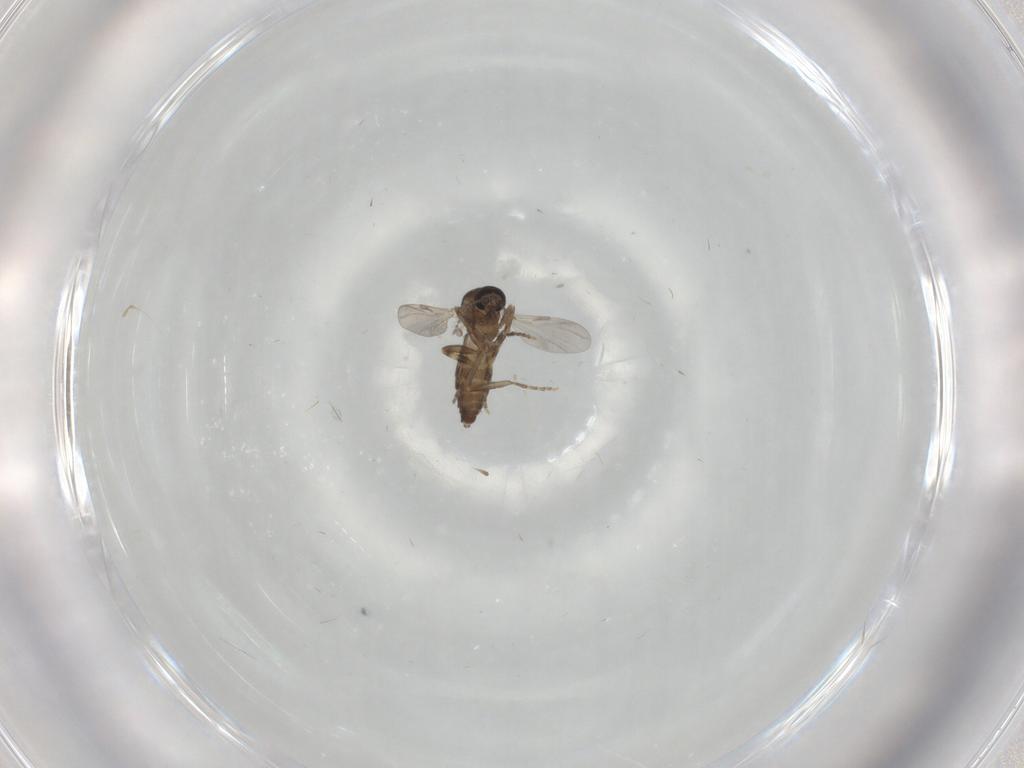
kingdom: Animalia
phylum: Arthropoda
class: Insecta
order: Diptera
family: Ceratopogonidae
